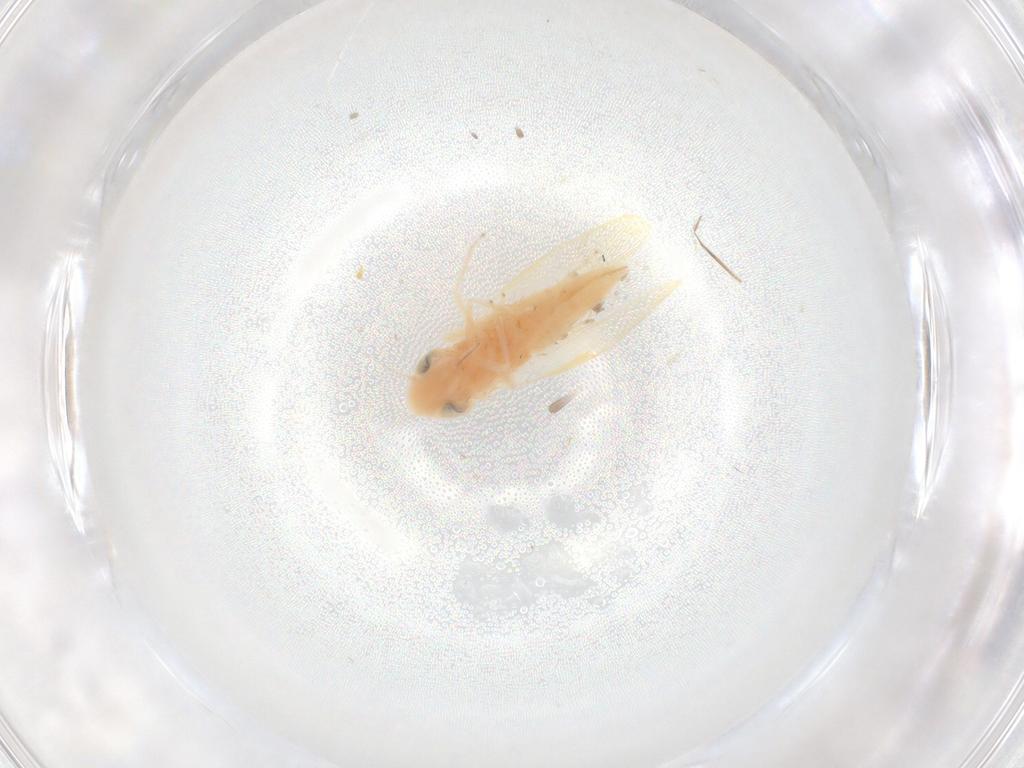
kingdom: Animalia
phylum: Arthropoda
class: Insecta
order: Hemiptera
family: Cicadellidae
